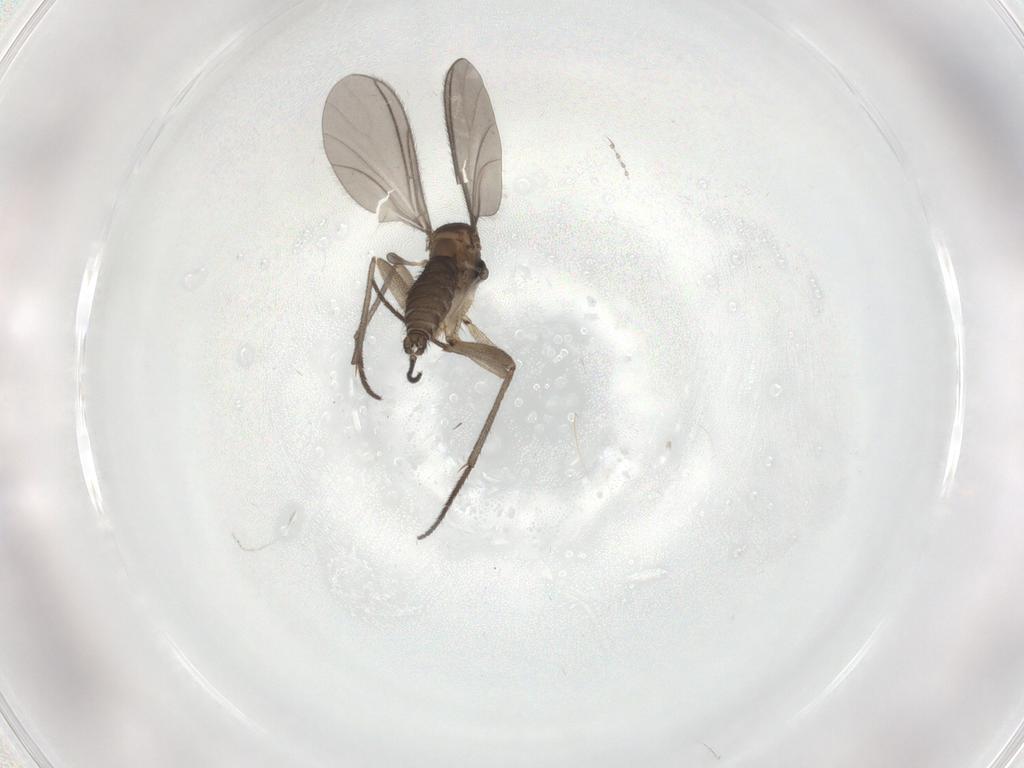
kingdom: Animalia
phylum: Arthropoda
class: Insecta
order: Diptera
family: Sciaridae
